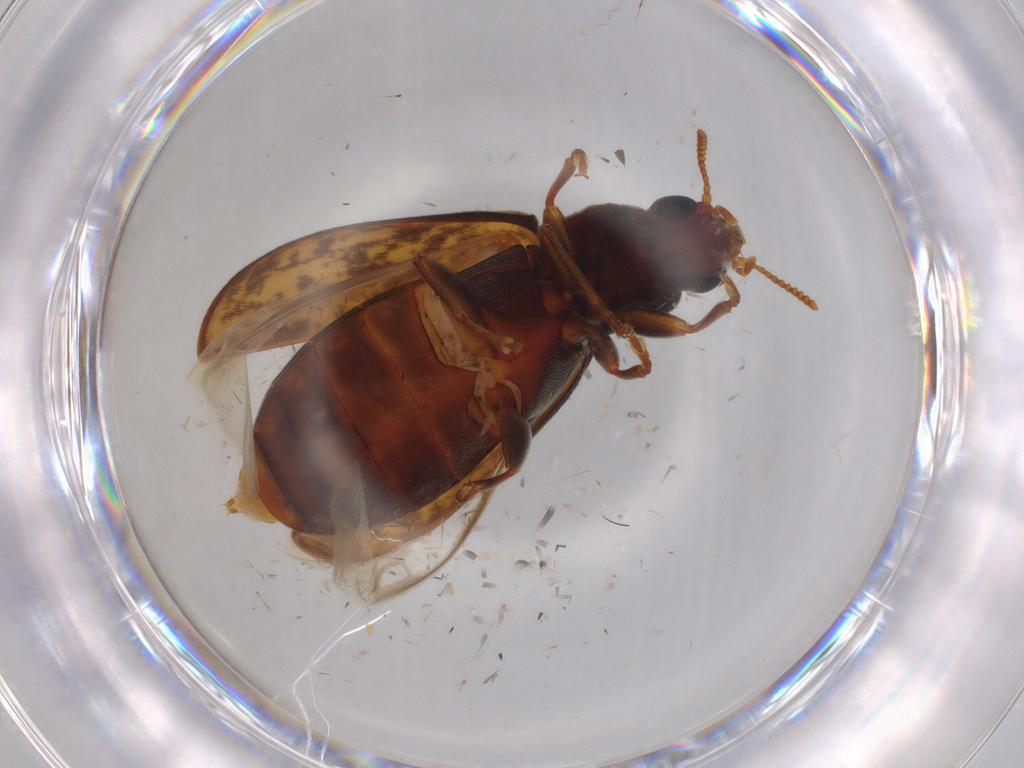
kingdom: Animalia
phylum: Arthropoda
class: Insecta
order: Coleoptera
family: Mycteridae
